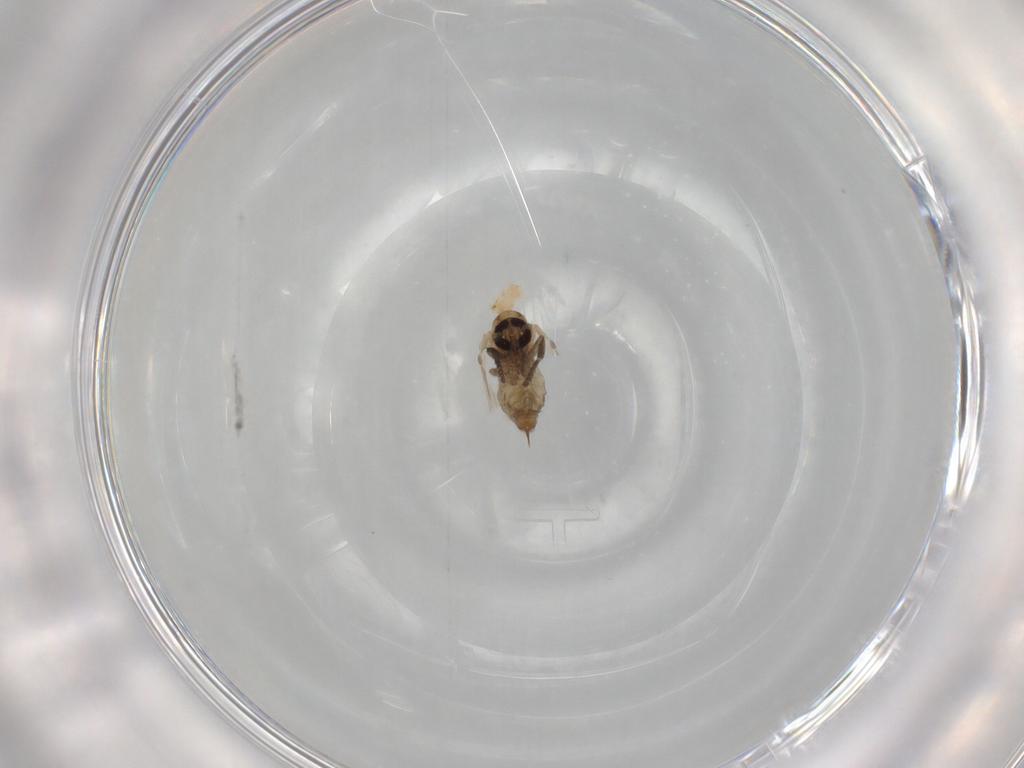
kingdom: Animalia
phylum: Arthropoda
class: Insecta
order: Diptera
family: Psychodidae
